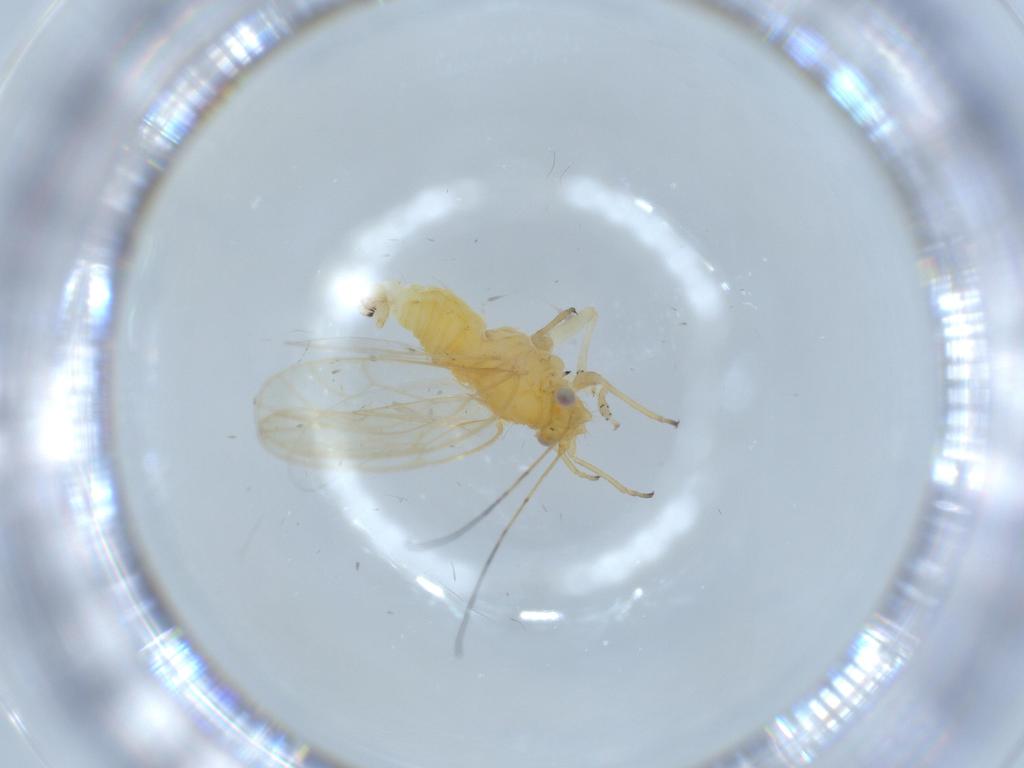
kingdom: Animalia
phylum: Arthropoda
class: Insecta
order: Hemiptera
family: Psyllidae
